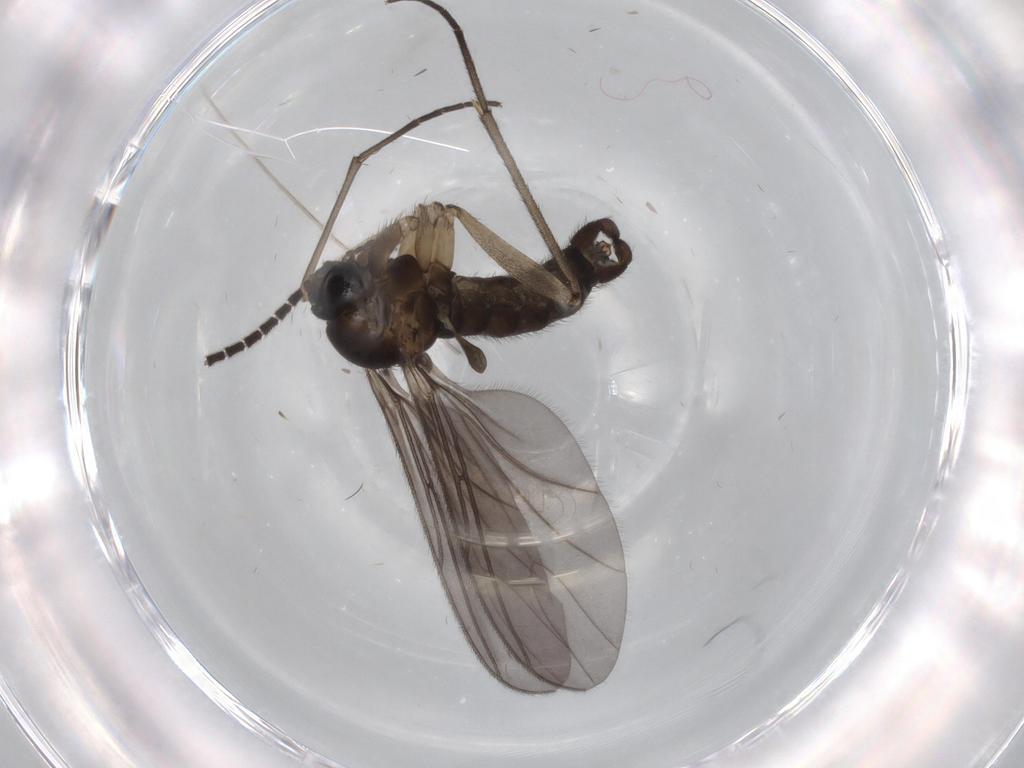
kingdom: Animalia
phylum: Arthropoda
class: Insecta
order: Diptera
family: Sciaridae
